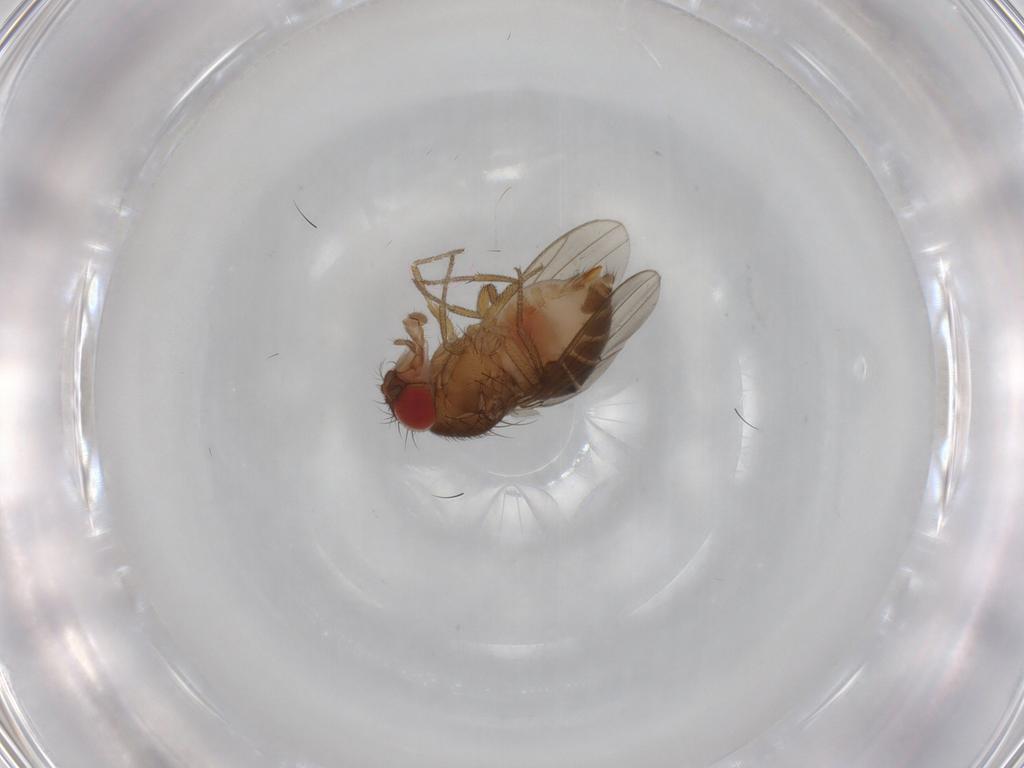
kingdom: Animalia
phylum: Arthropoda
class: Insecta
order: Diptera
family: Drosophilidae
